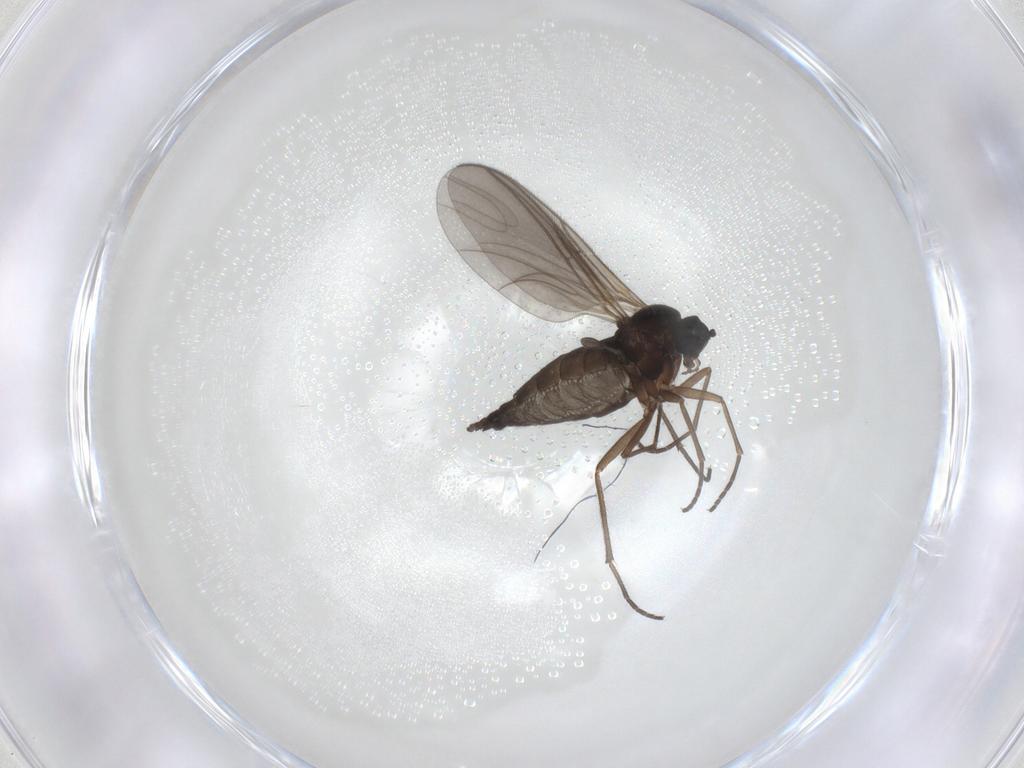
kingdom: Animalia
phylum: Arthropoda
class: Insecta
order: Diptera
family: Sciaridae
